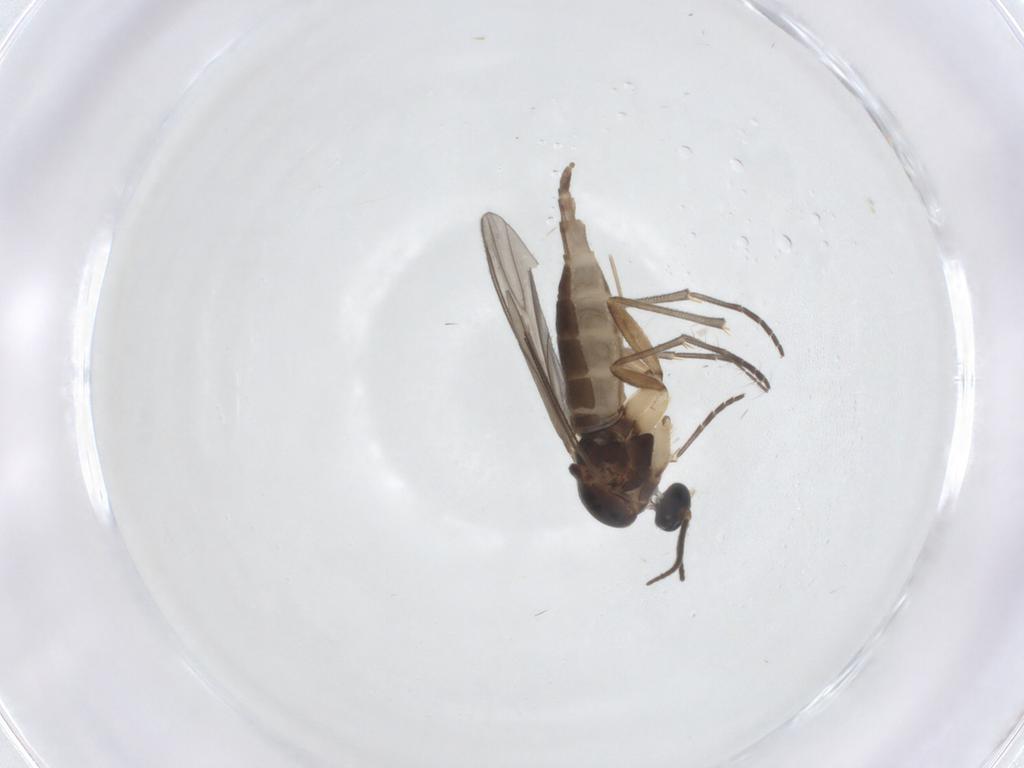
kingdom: Animalia
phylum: Arthropoda
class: Insecta
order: Diptera
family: Sciaridae
